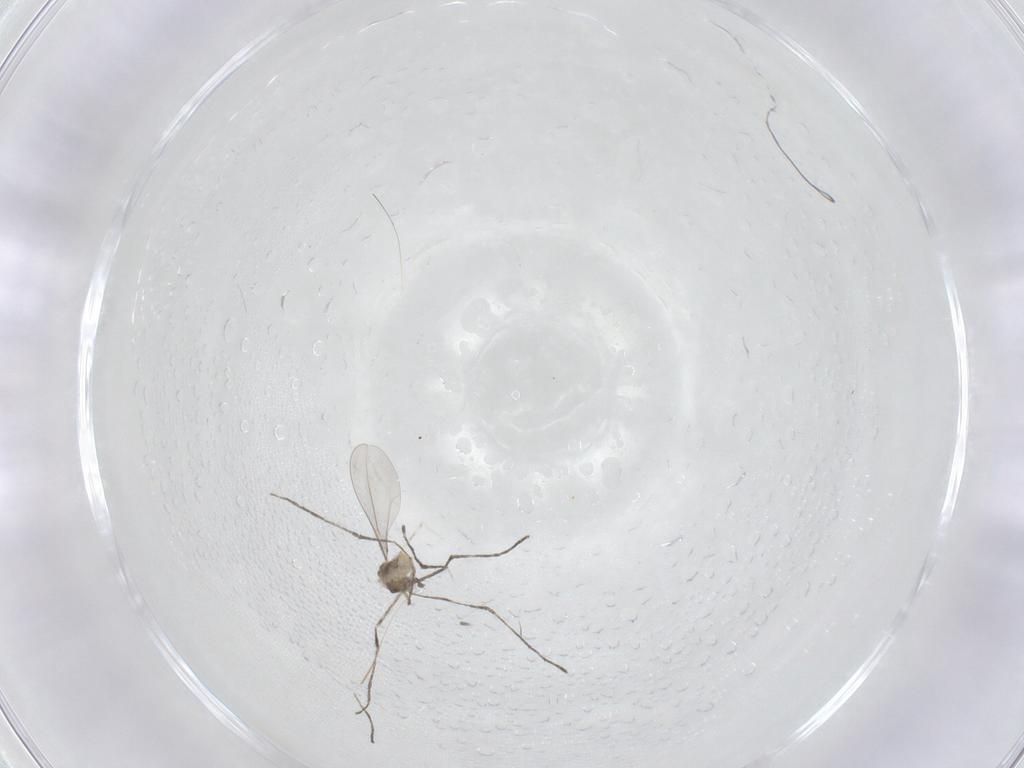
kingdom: Animalia
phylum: Arthropoda
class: Insecta
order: Diptera
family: Cecidomyiidae
